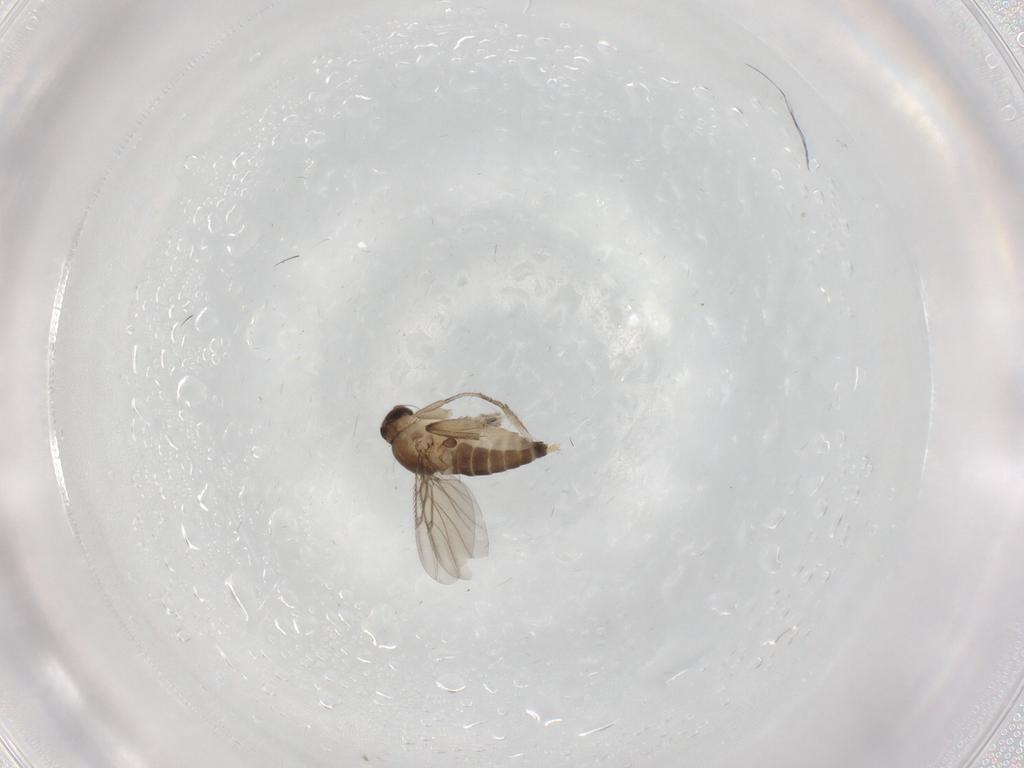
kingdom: Animalia
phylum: Arthropoda
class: Insecta
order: Diptera
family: Phoridae
